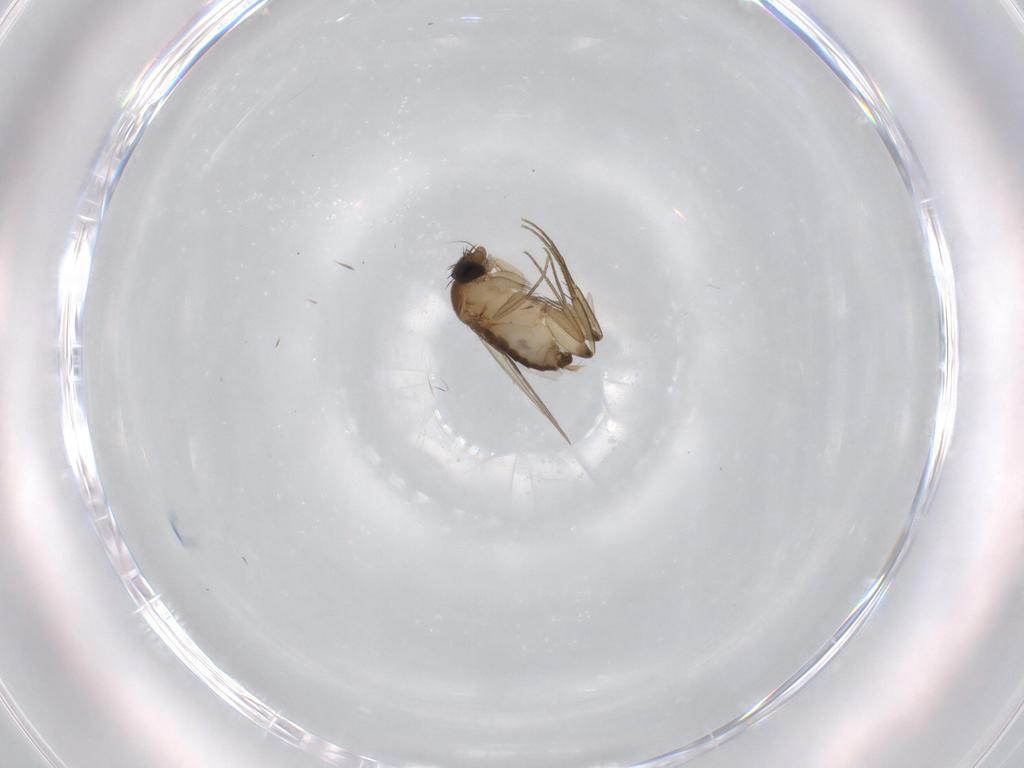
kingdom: Animalia
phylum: Arthropoda
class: Insecta
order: Diptera
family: Phoridae
